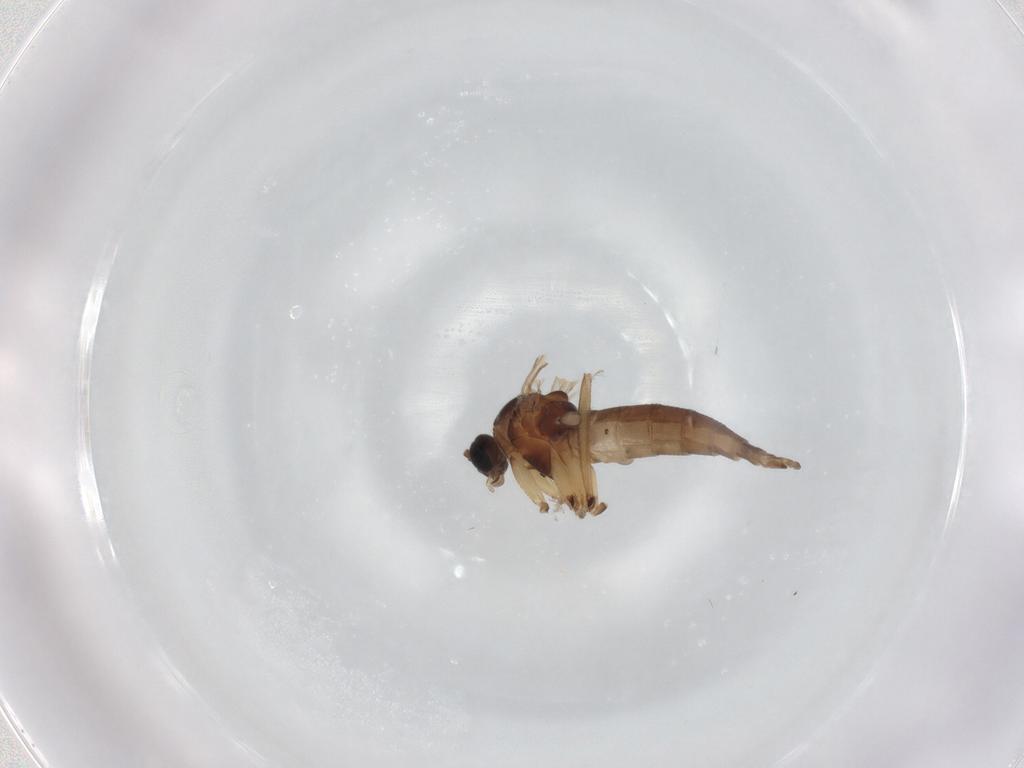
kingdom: Animalia
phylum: Arthropoda
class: Insecta
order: Diptera
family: Sciaridae
